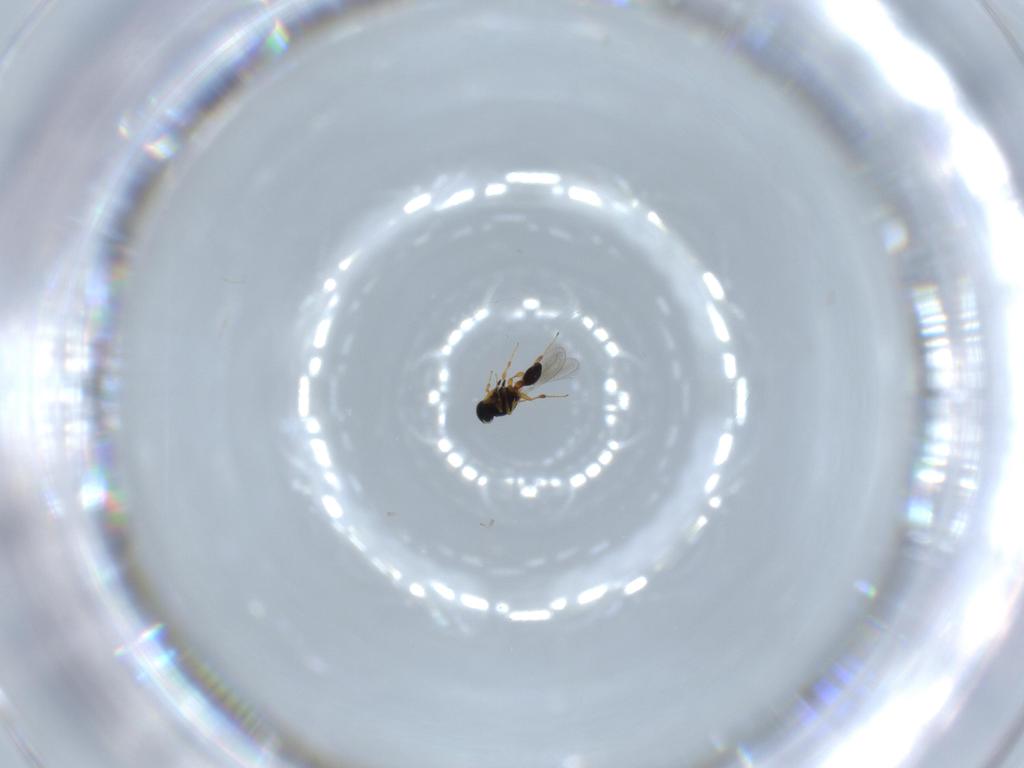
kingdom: Animalia
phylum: Arthropoda
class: Insecta
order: Hymenoptera
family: Platygastridae
